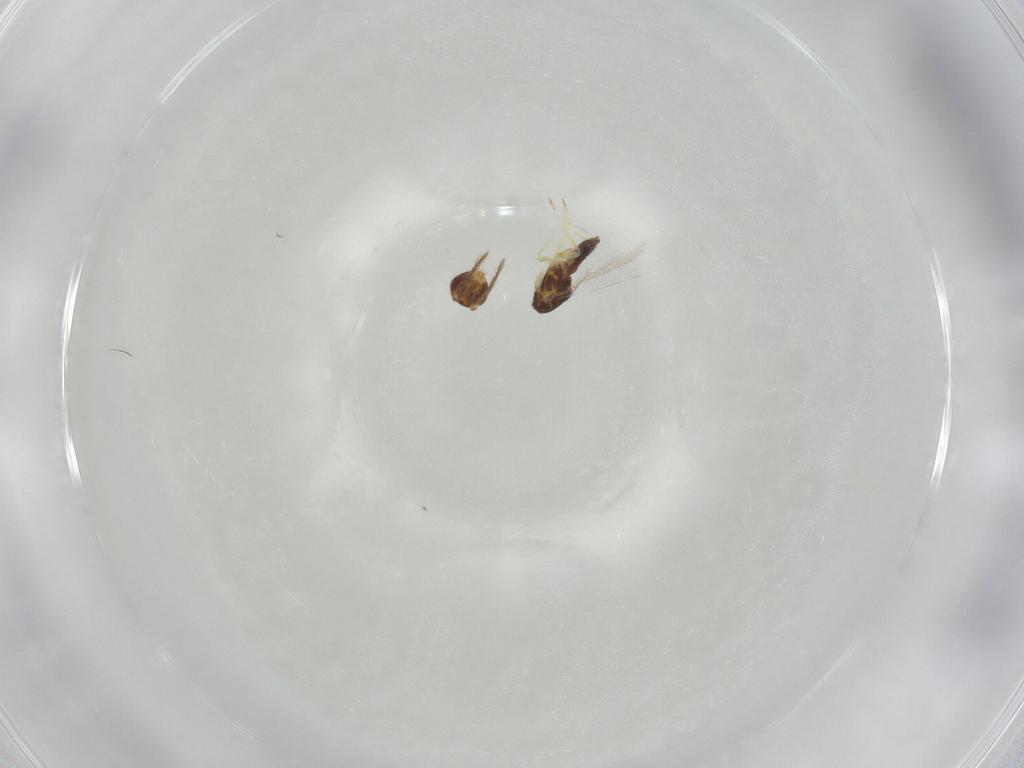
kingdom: Animalia
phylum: Arthropoda
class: Insecta
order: Hymenoptera
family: Eulophidae
